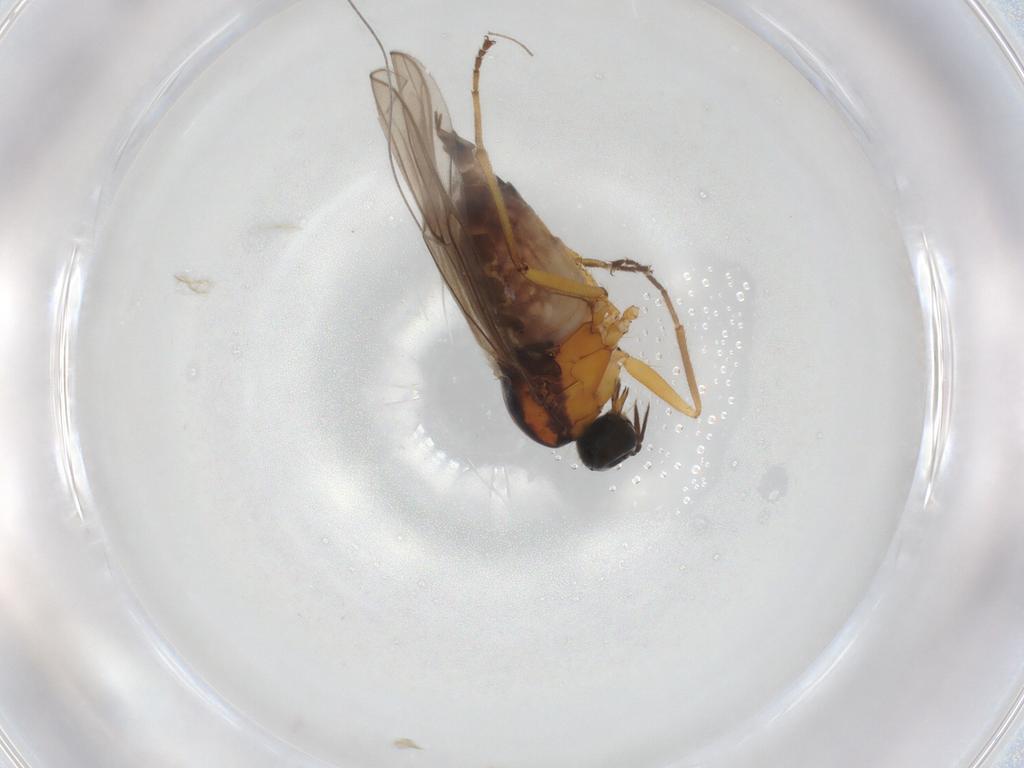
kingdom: Animalia
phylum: Arthropoda
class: Insecta
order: Diptera
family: Hybotidae
